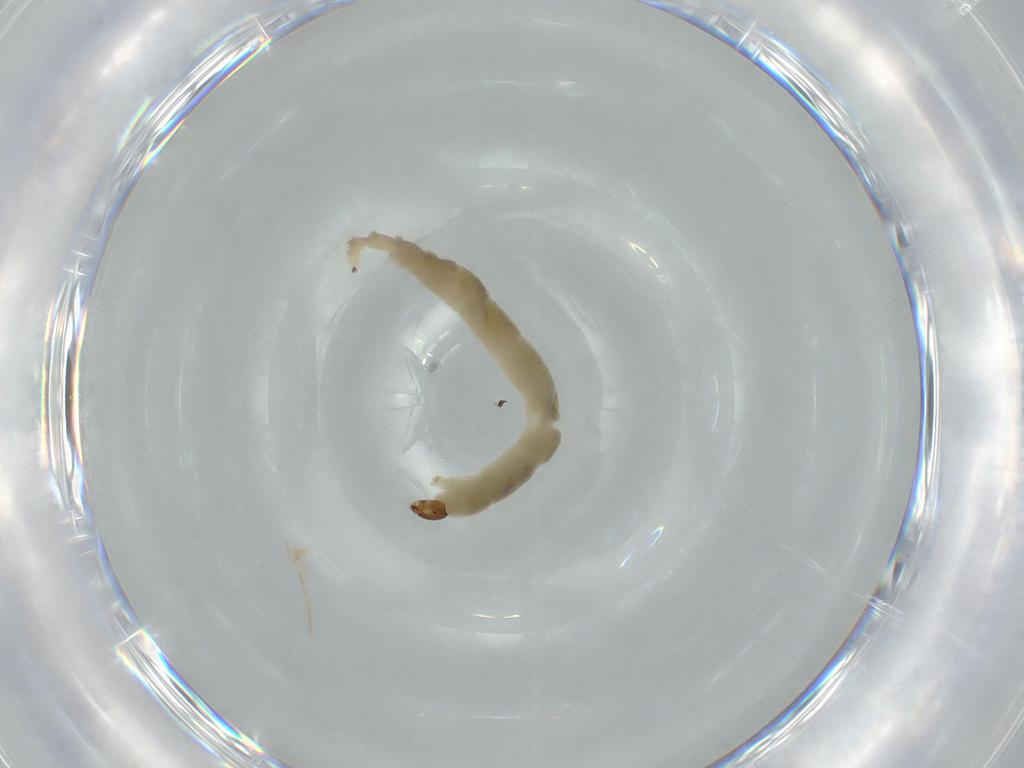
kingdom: Animalia
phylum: Arthropoda
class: Insecta
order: Diptera
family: Chironomidae
